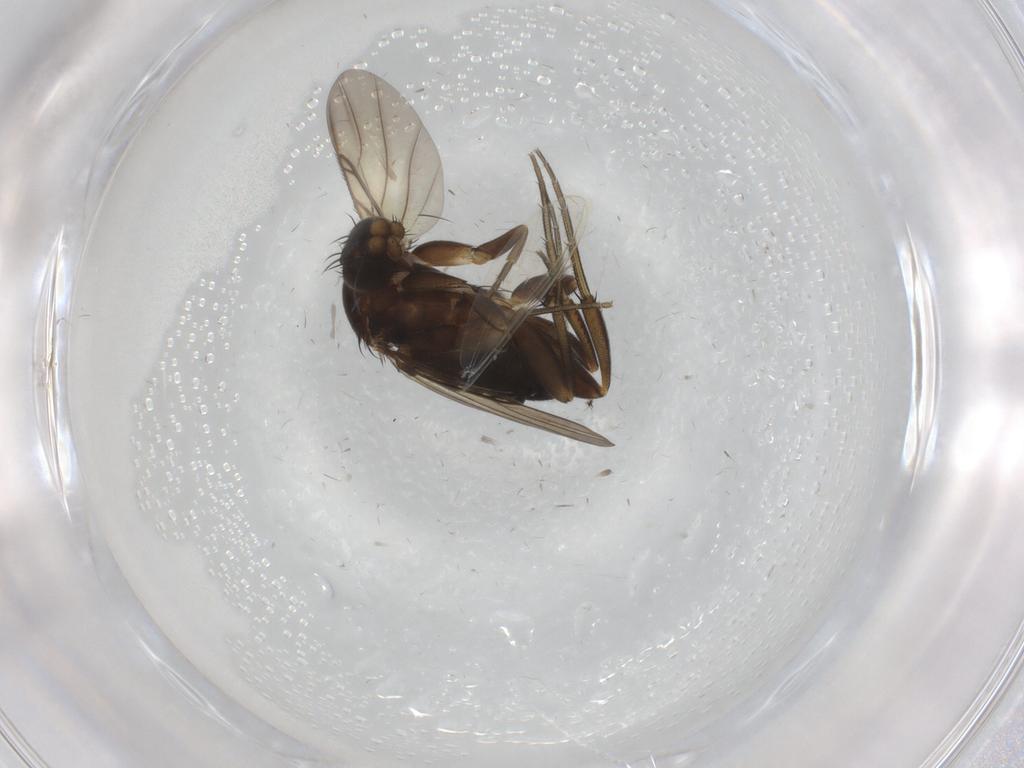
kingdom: Animalia
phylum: Arthropoda
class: Insecta
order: Diptera
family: Phoridae
